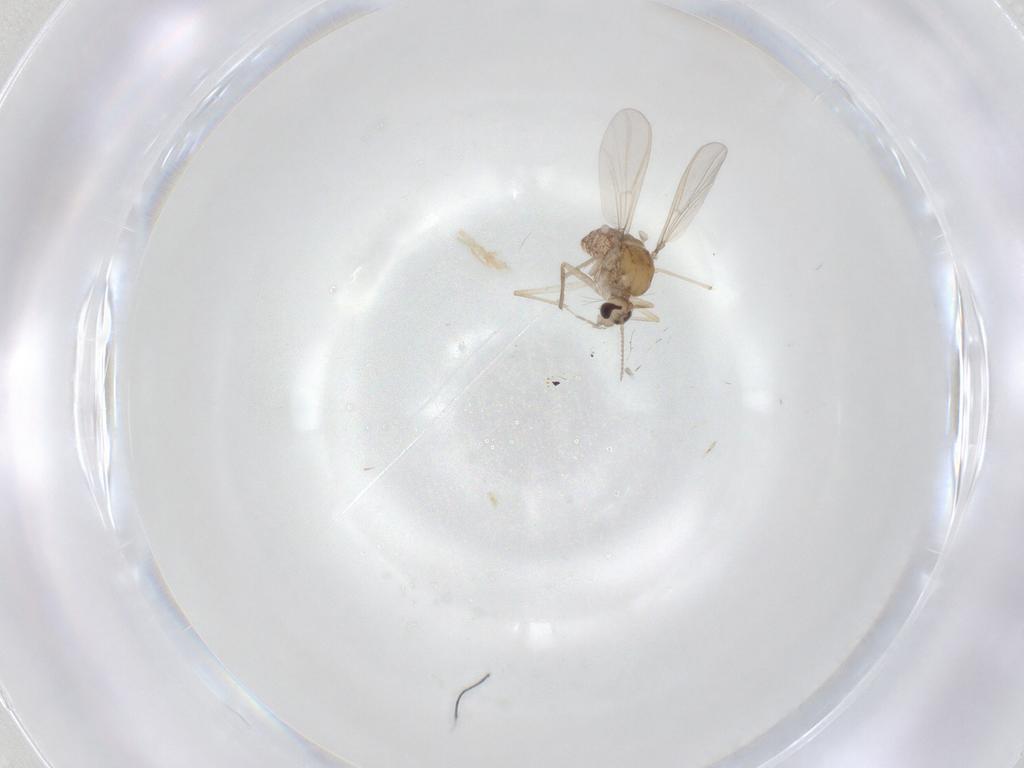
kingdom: Animalia
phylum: Arthropoda
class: Insecta
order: Diptera
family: Chironomidae
